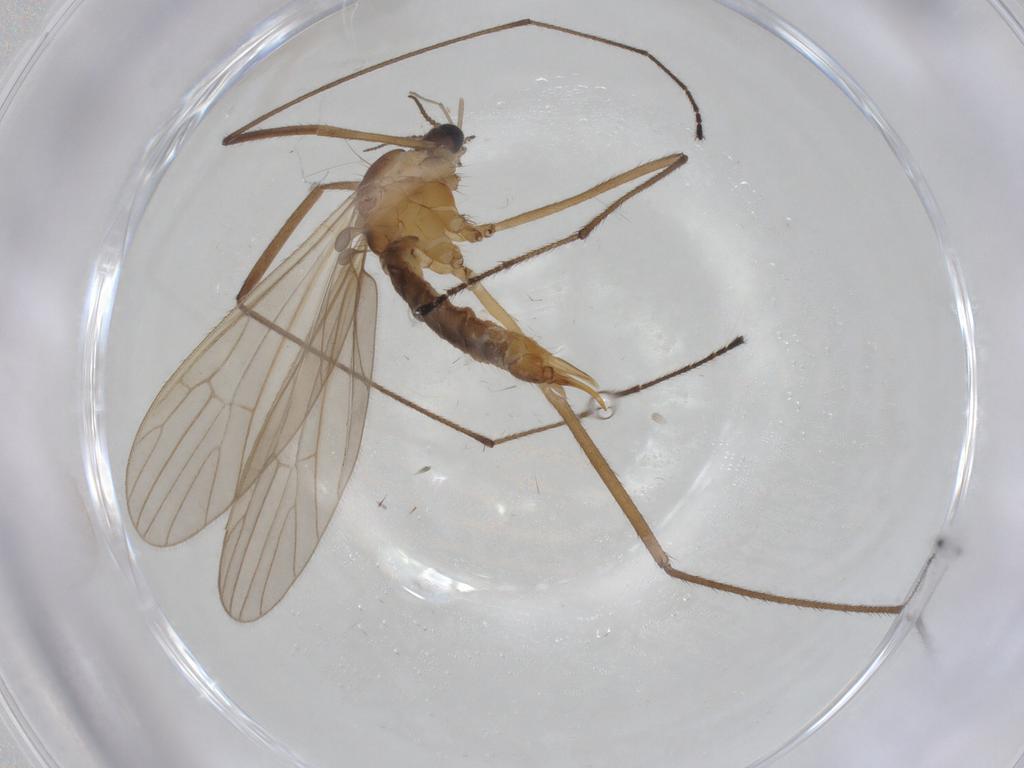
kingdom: Animalia
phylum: Arthropoda
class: Insecta
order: Diptera
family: Limoniidae
